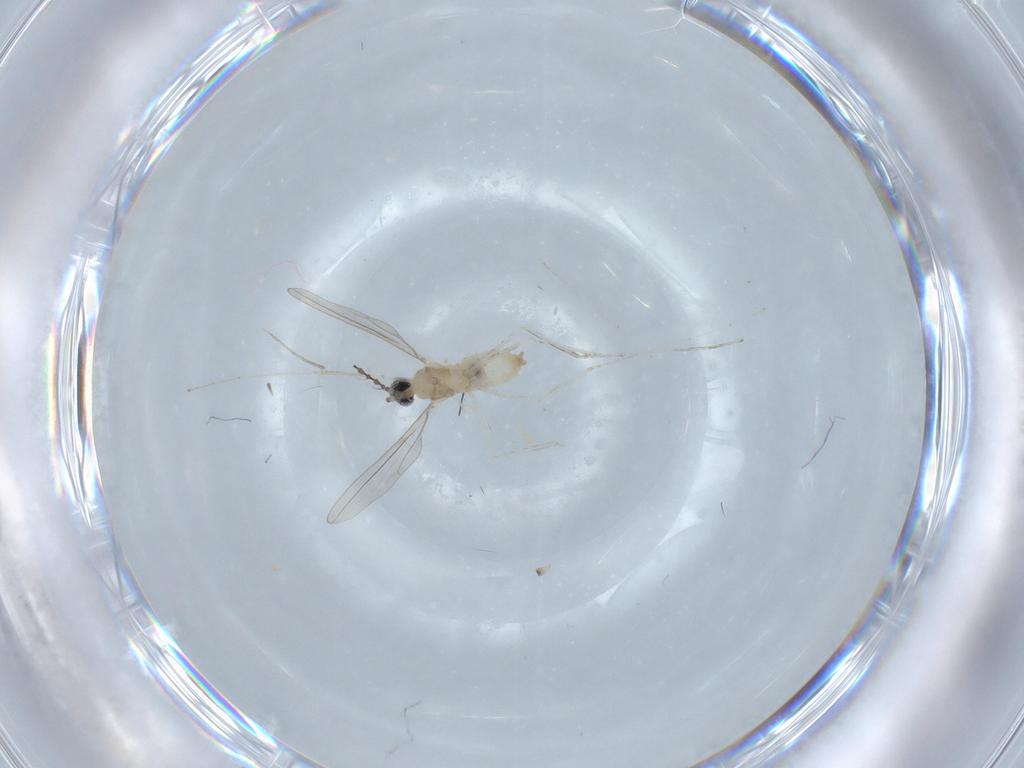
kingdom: Animalia
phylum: Arthropoda
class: Insecta
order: Diptera
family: Cecidomyiidae
